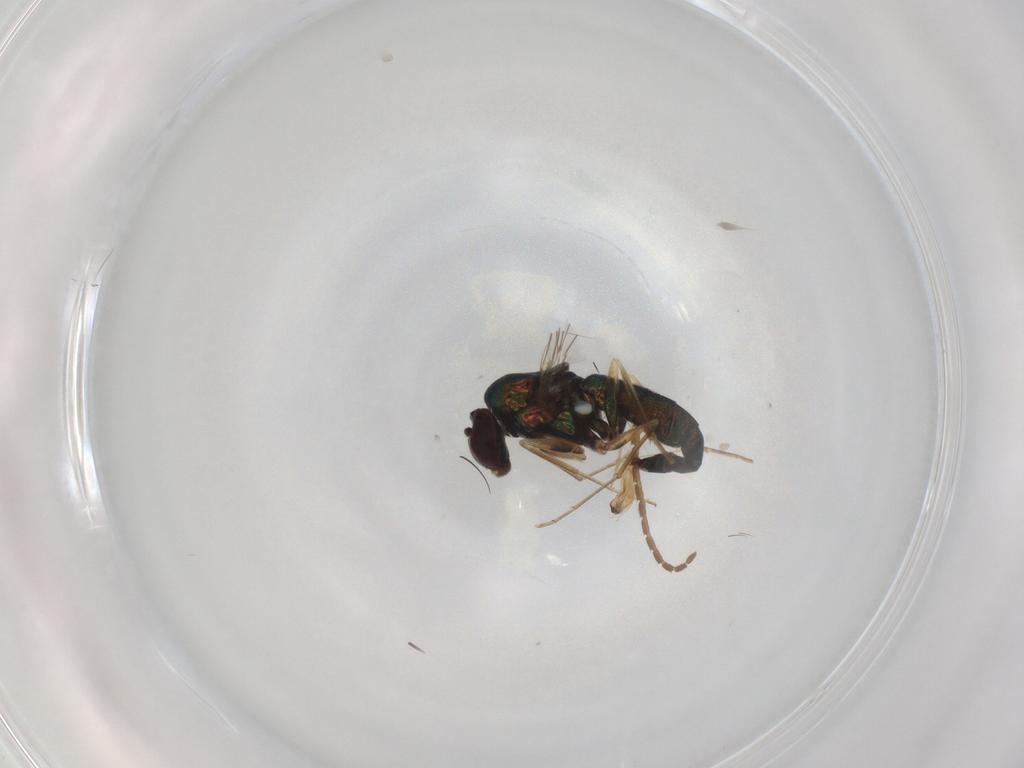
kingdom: Animalia
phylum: Arthropoda
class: Insecta
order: Diptera
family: Dolichopodidae
